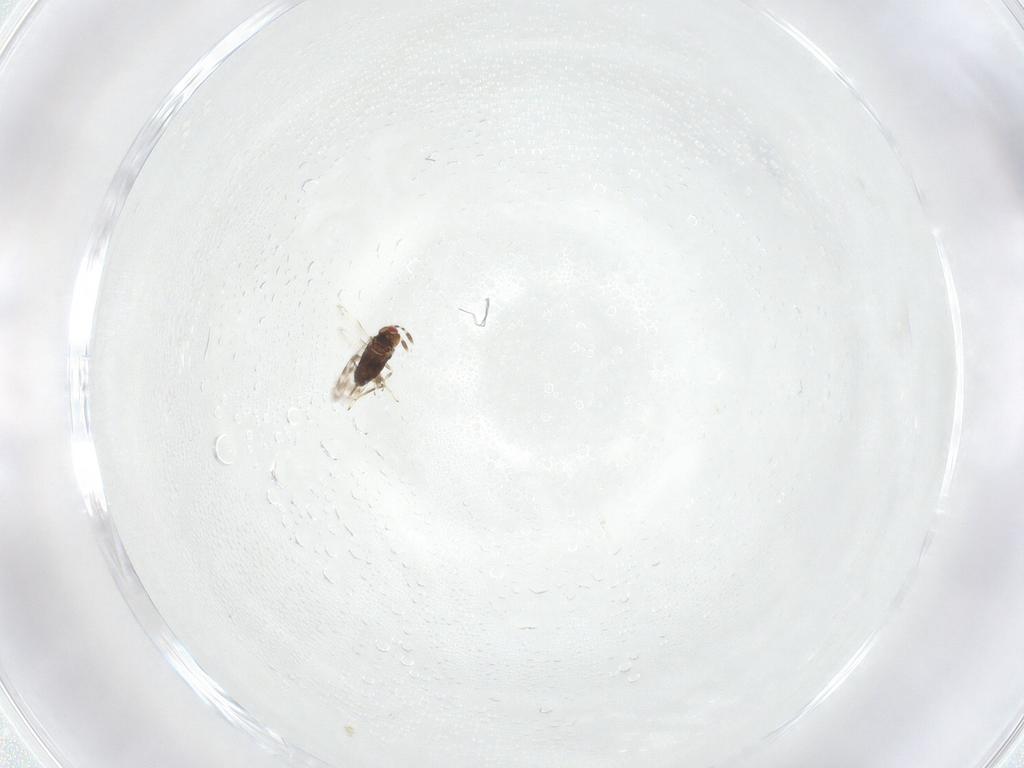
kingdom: Animalia
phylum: Arthropoda
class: Insecta
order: Hymenoptera
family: Azotidae
